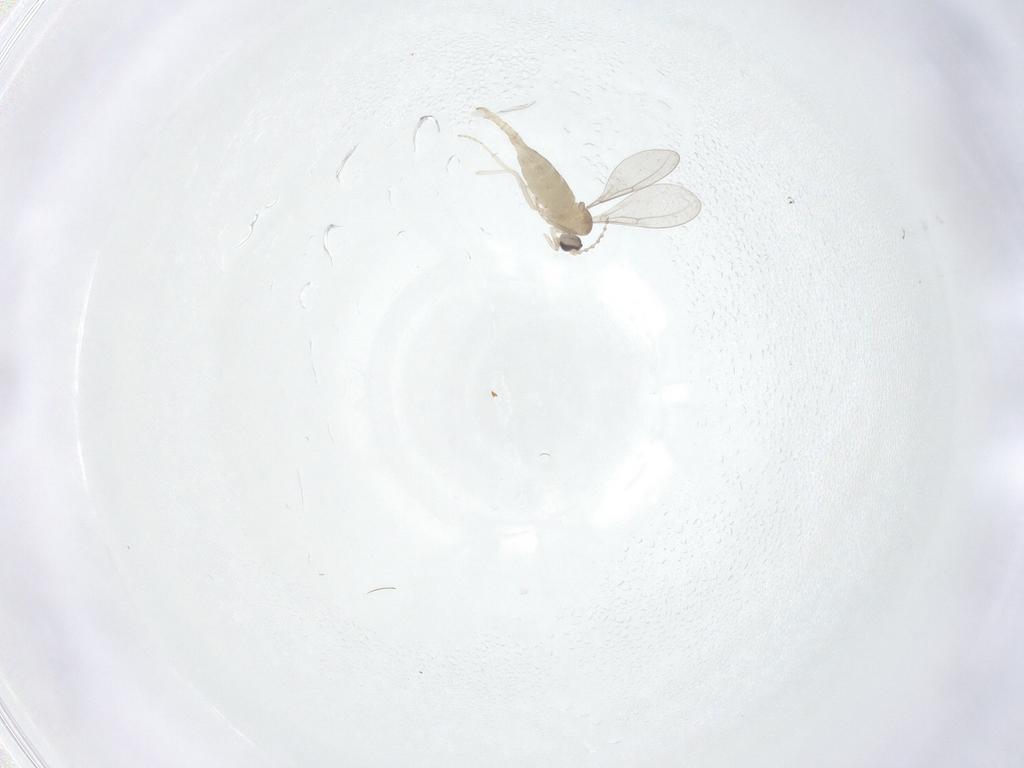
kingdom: Animalia
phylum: Arthropoda
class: Insecta
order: Diptera
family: Cecidomyiidae
